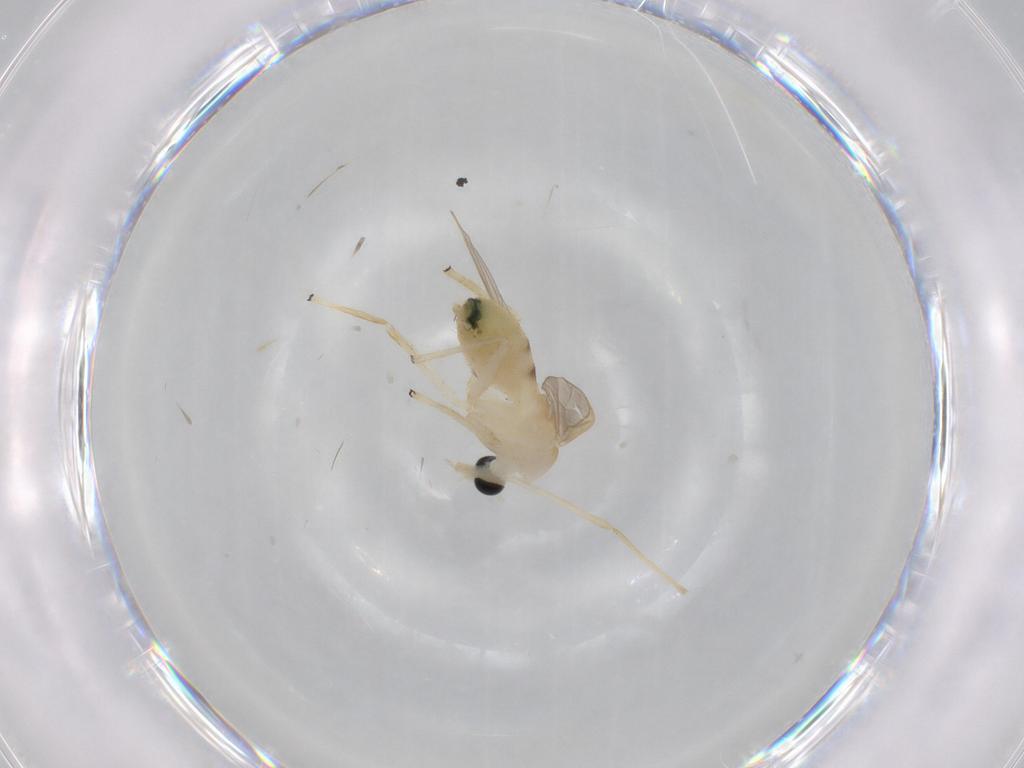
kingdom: Animalia
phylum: Arthropoda
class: Insecta
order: Diptera
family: Chironomidae
